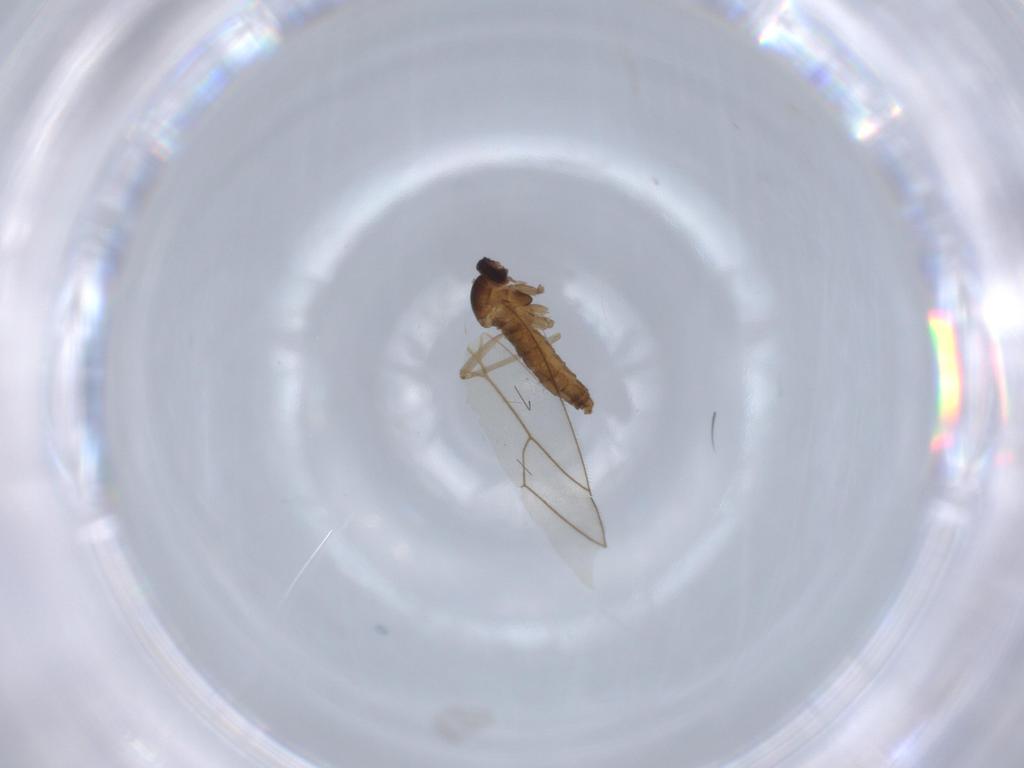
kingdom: Animalia
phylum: Arthropoda
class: Insecta
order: Diptera
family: Cecidomyiidae
